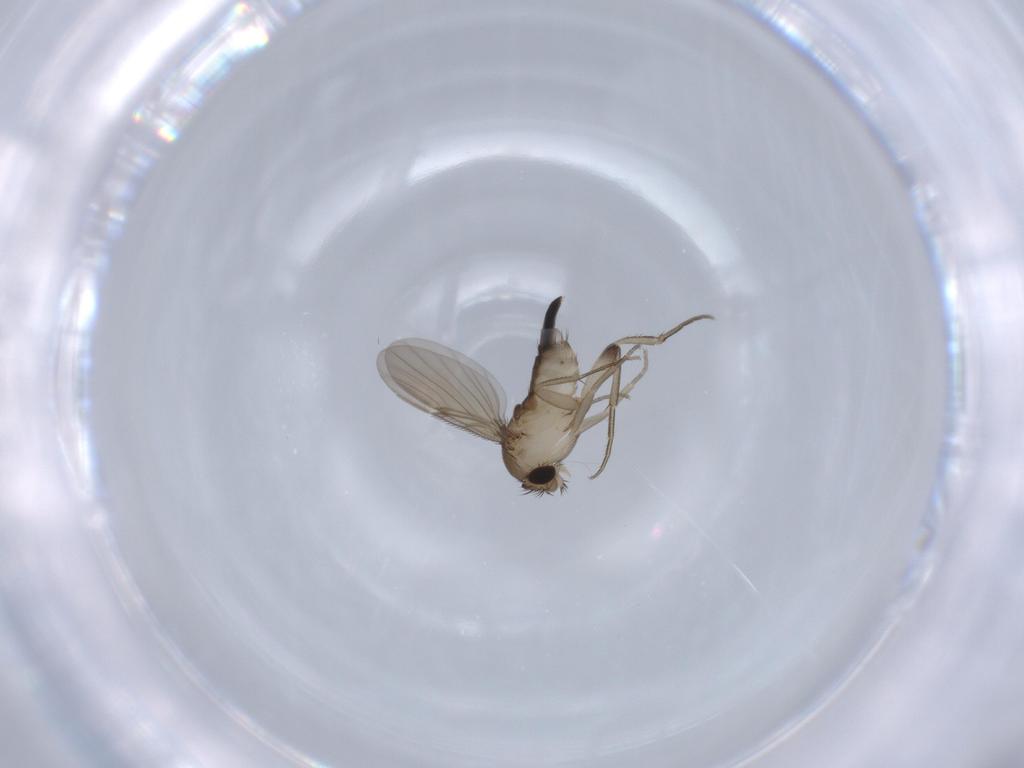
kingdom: Animalia
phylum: Arthropoda
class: Insecta
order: Diptera
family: Phoridae
